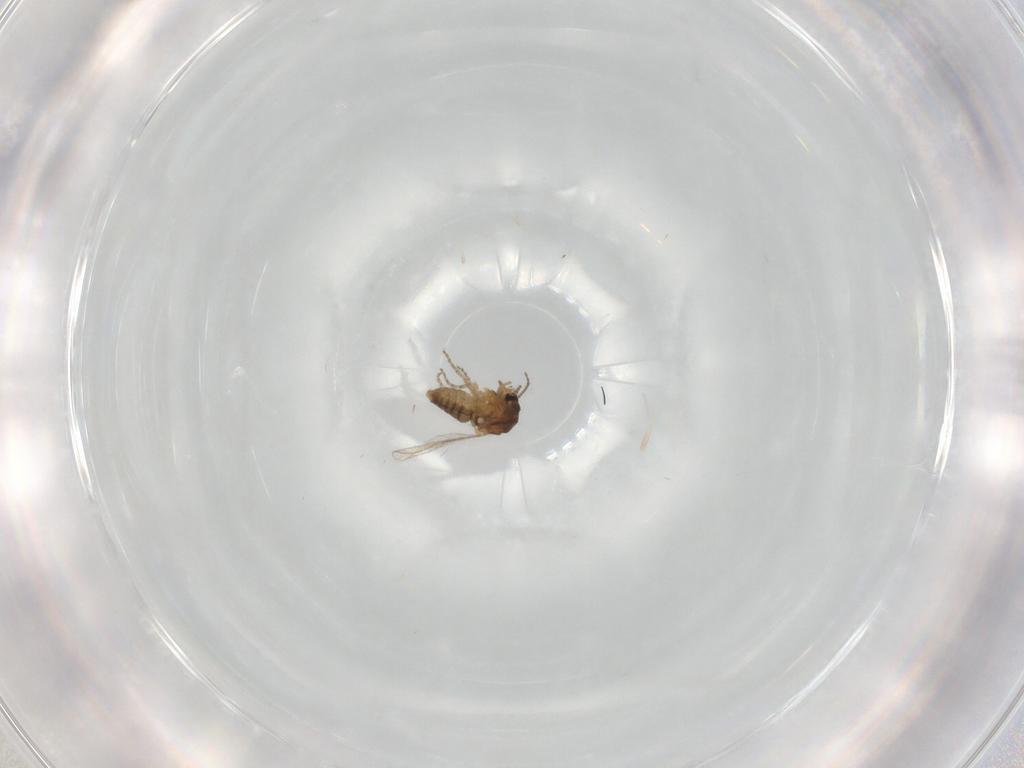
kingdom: Animalia
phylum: Arthropoda
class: Insecta
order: Diptera
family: Ceratopogonidae
